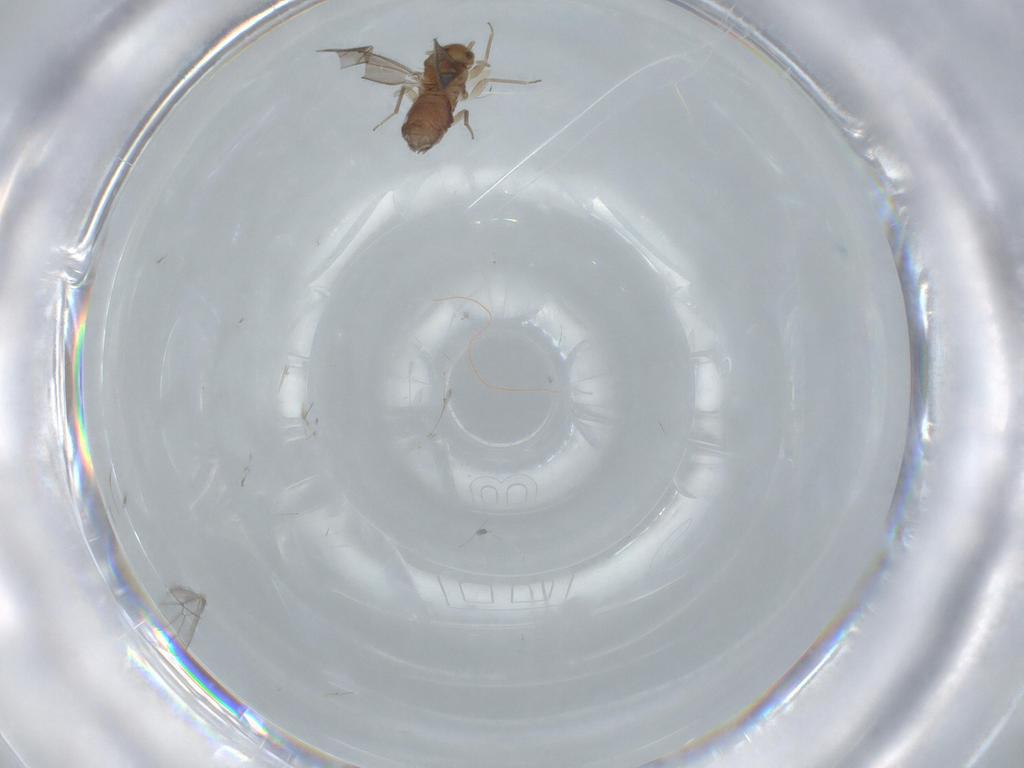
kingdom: Animalia
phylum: Arthropoda
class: Insecta
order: Psocodea
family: Ectopsocidae
